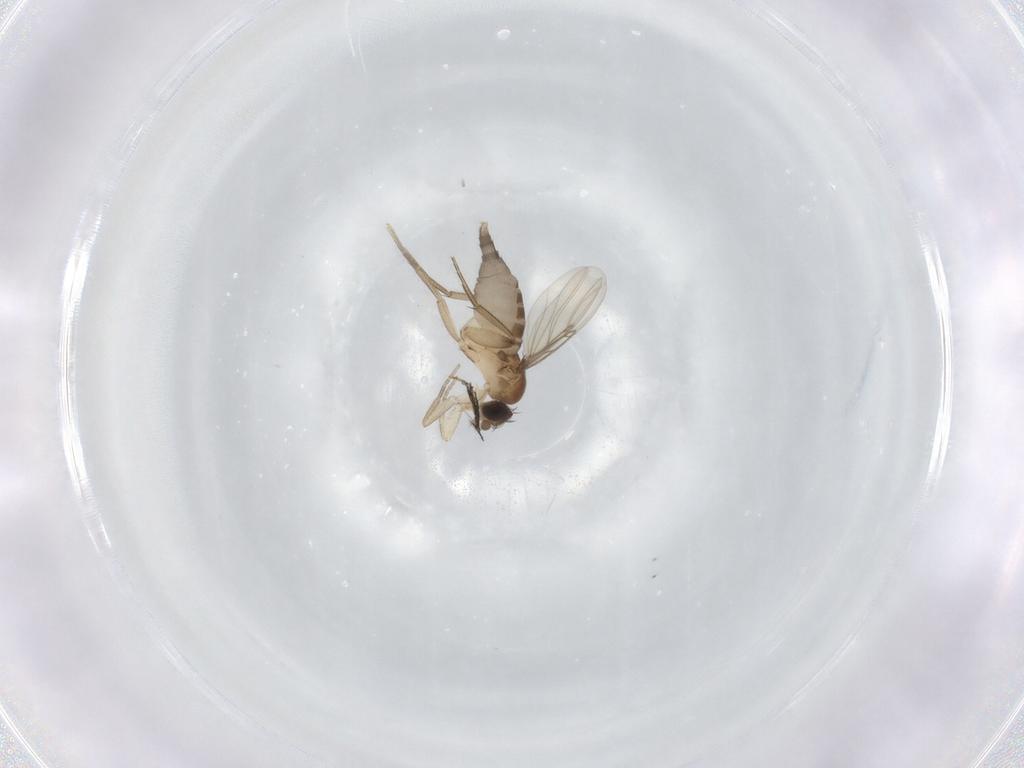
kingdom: Animalia
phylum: Arthropoda
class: Insecta
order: Diptera
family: Phoridae
